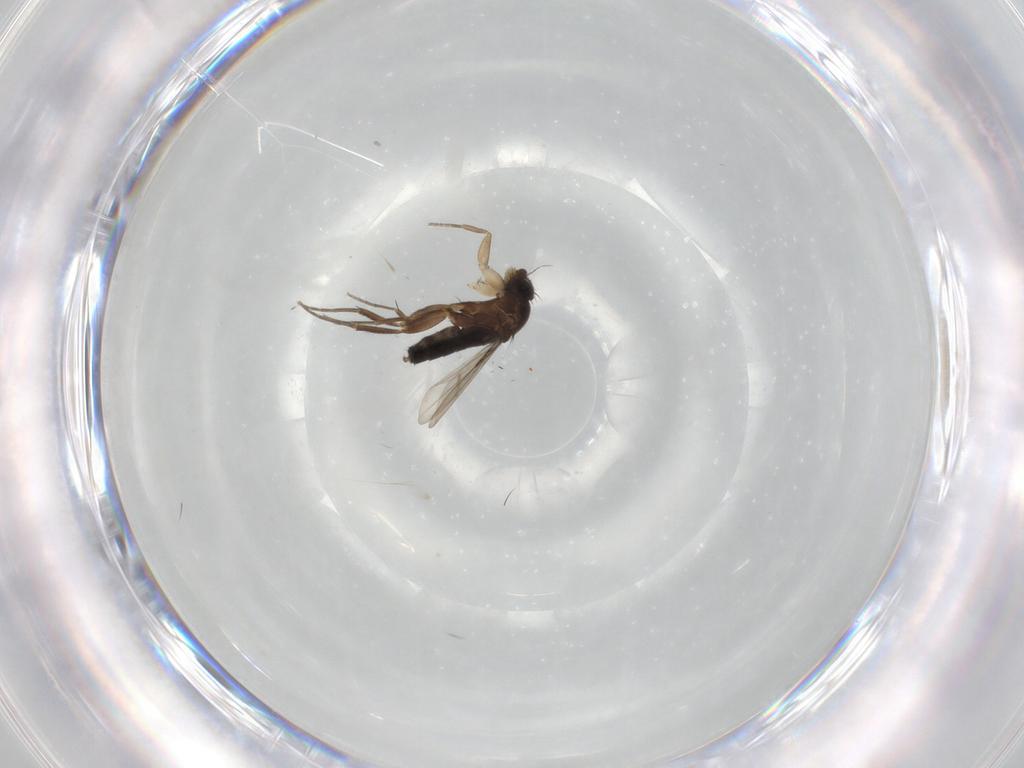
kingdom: Animalia
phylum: Arthropoda
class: Insecta
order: Diptera
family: Phoridae
